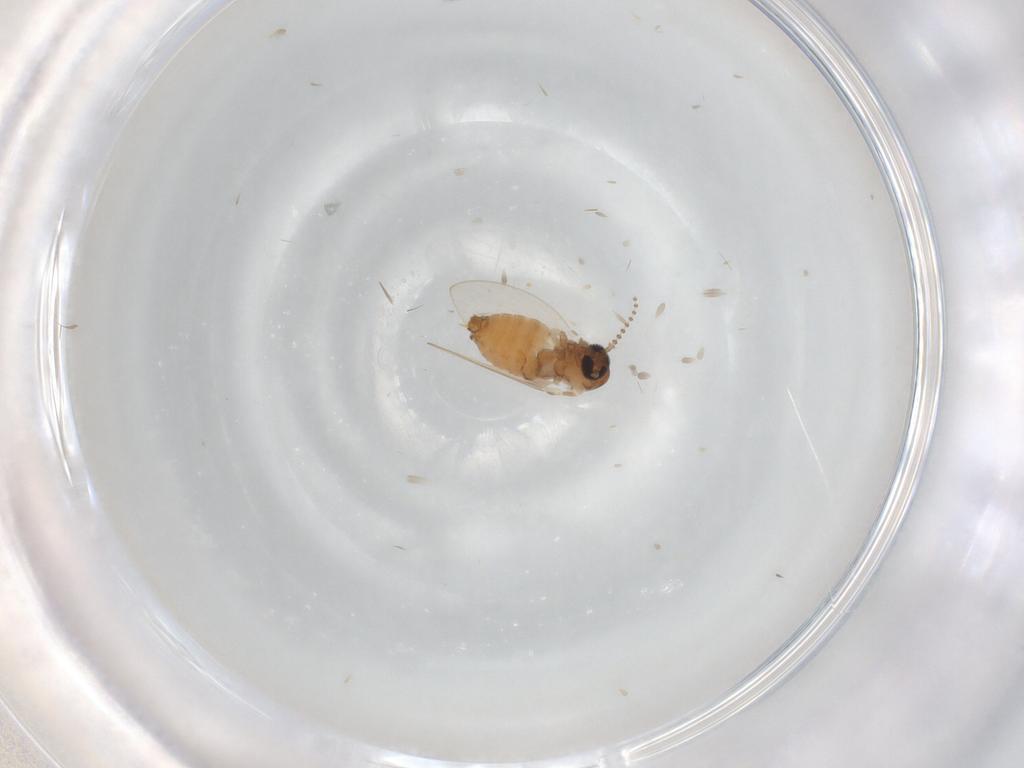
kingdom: Animalia
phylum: Arthropoda
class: Insecta
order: Diptera
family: Psychodidae
